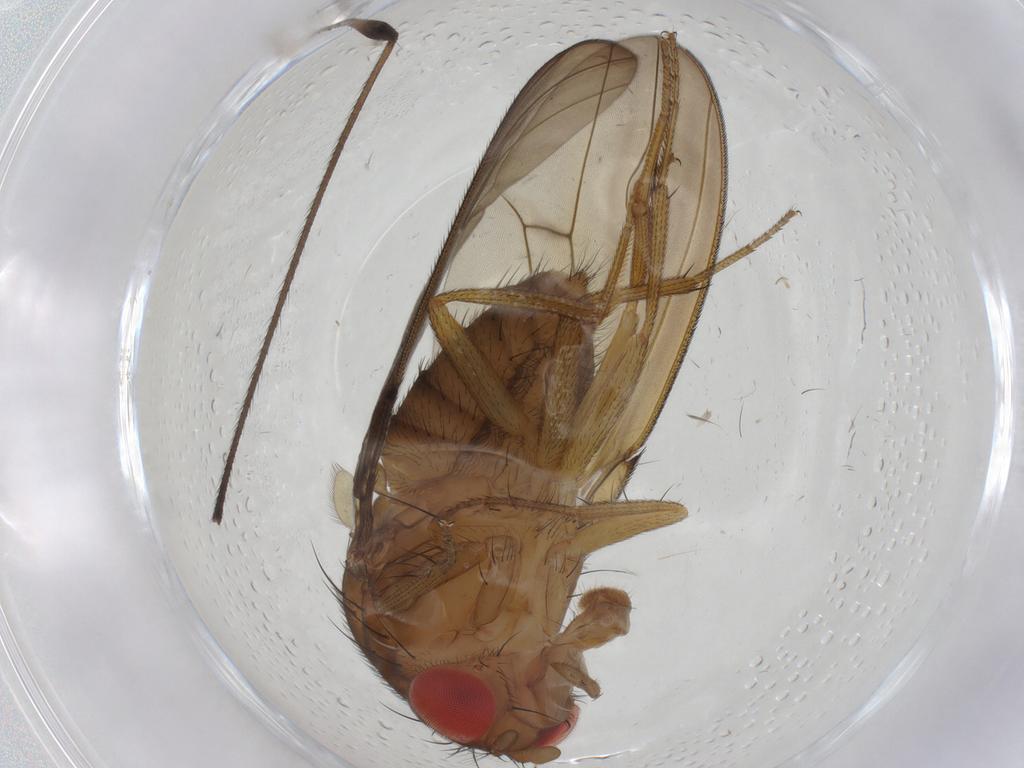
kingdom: Animalia
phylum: Arthropoda
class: Insecta
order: Diptera
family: Drosophilidae
